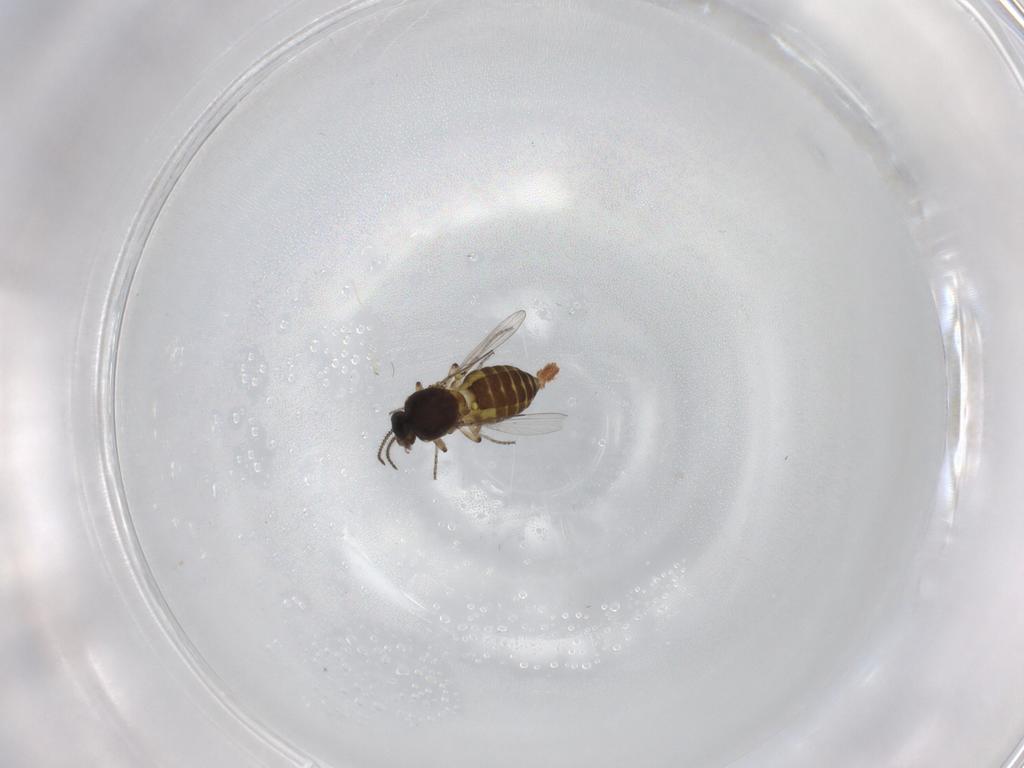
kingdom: Animalia
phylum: Arthropoda
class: Insecta
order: Diptera
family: Ceratopogonidae
